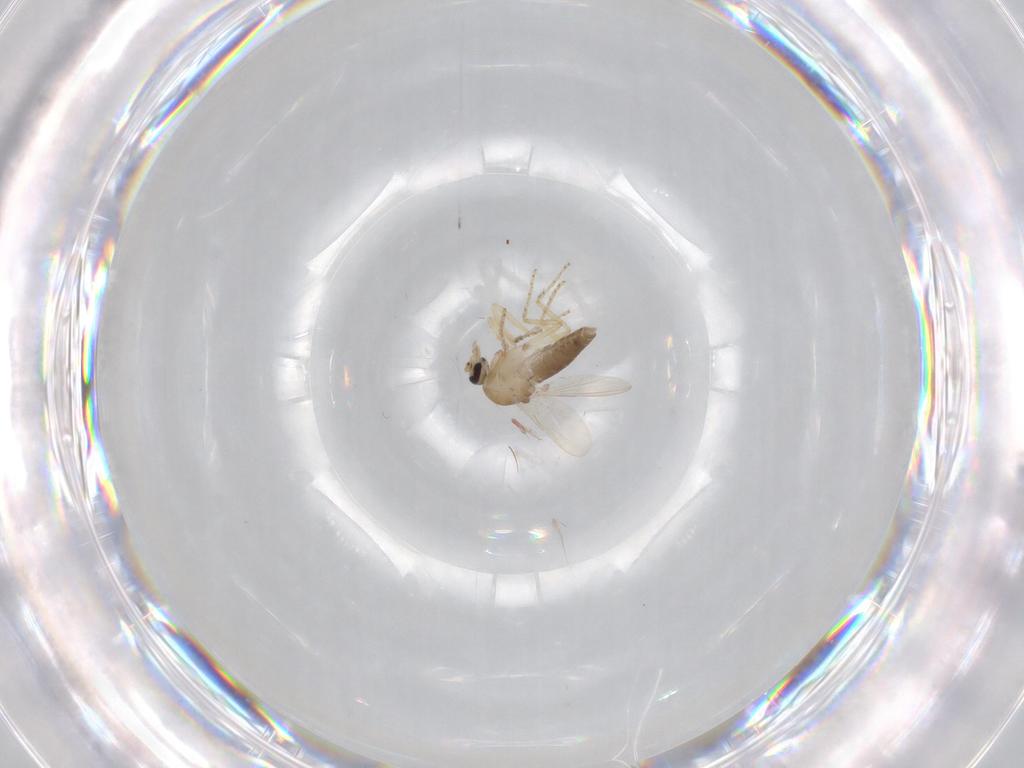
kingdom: Animalia
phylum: Arthropoda
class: Insecta
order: Diptera
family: Ceratopogonidae
